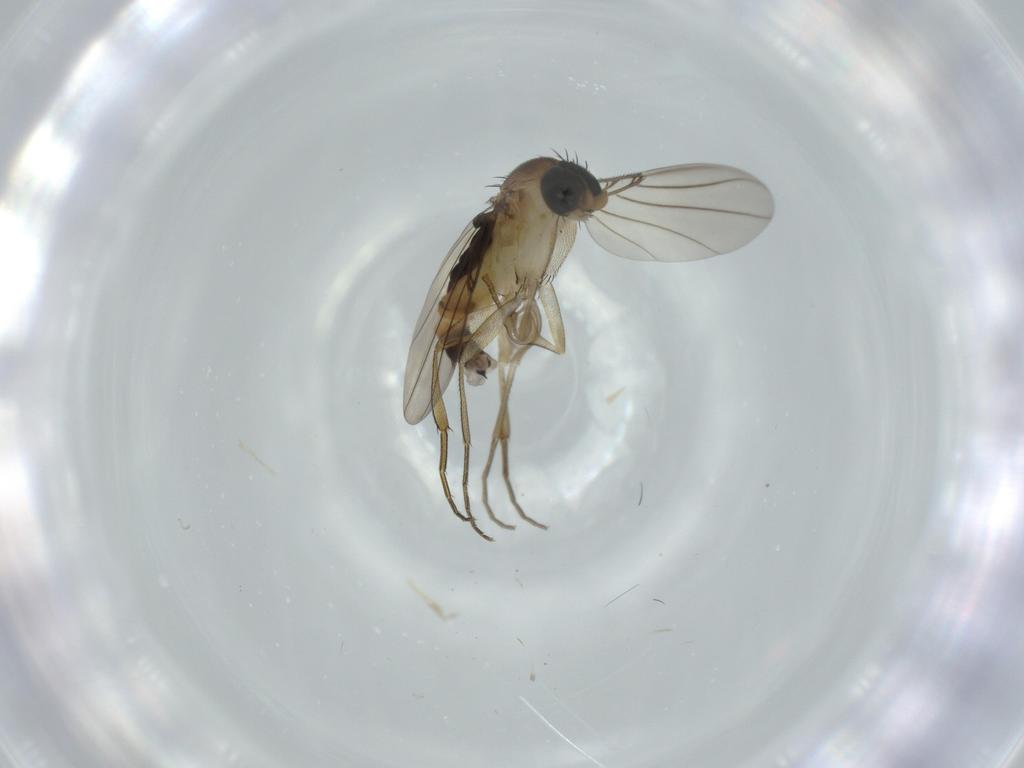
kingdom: Animalia
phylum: Arthropoda
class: Insecta
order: Diptera
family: Phoridae
